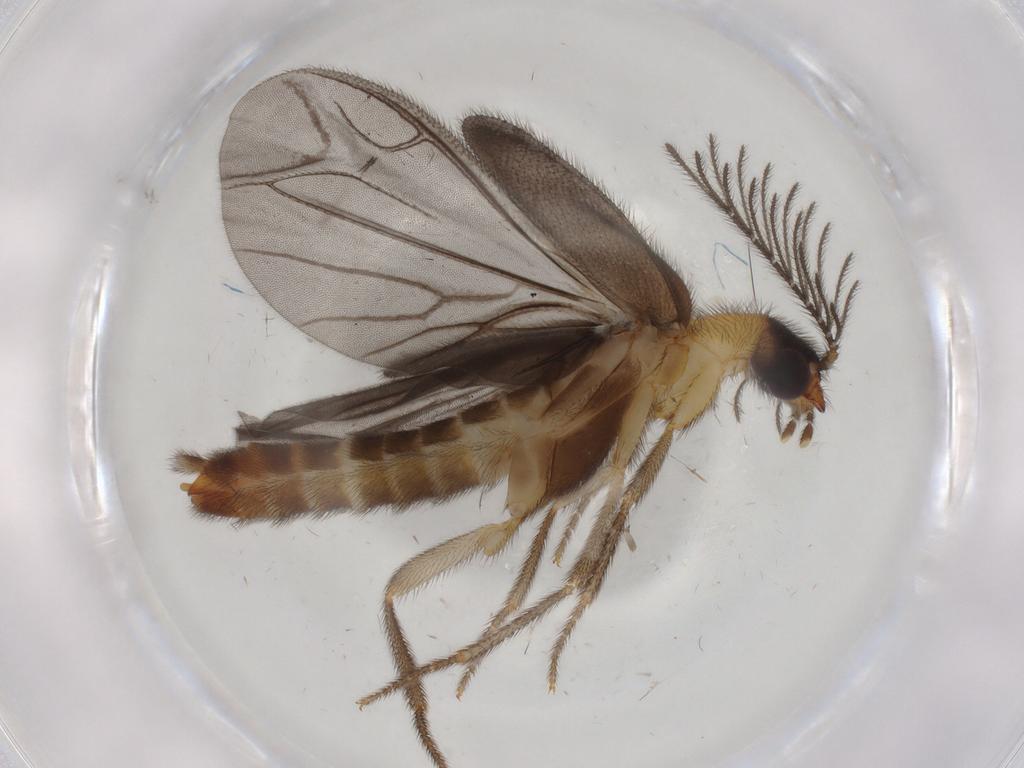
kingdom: Animalia
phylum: Arthropoda
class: Insecta
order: Coleoptera
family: Phengodidae
